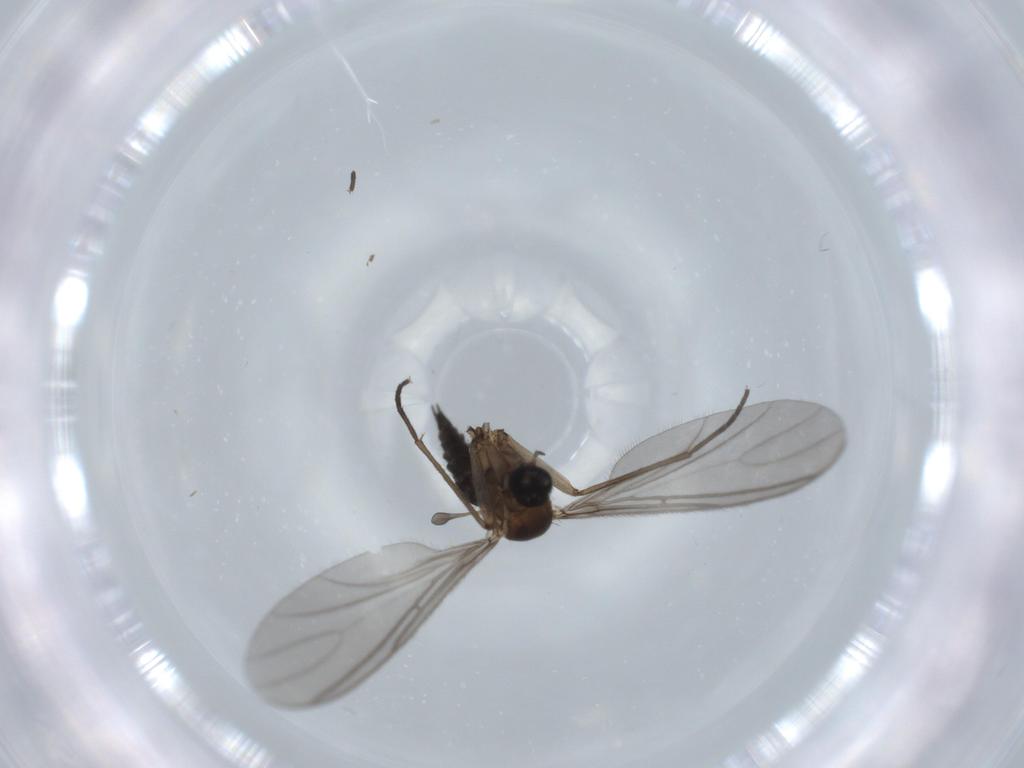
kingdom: Animalia
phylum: Arthropoda
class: Insecta
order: Diptera
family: Sciaridae
